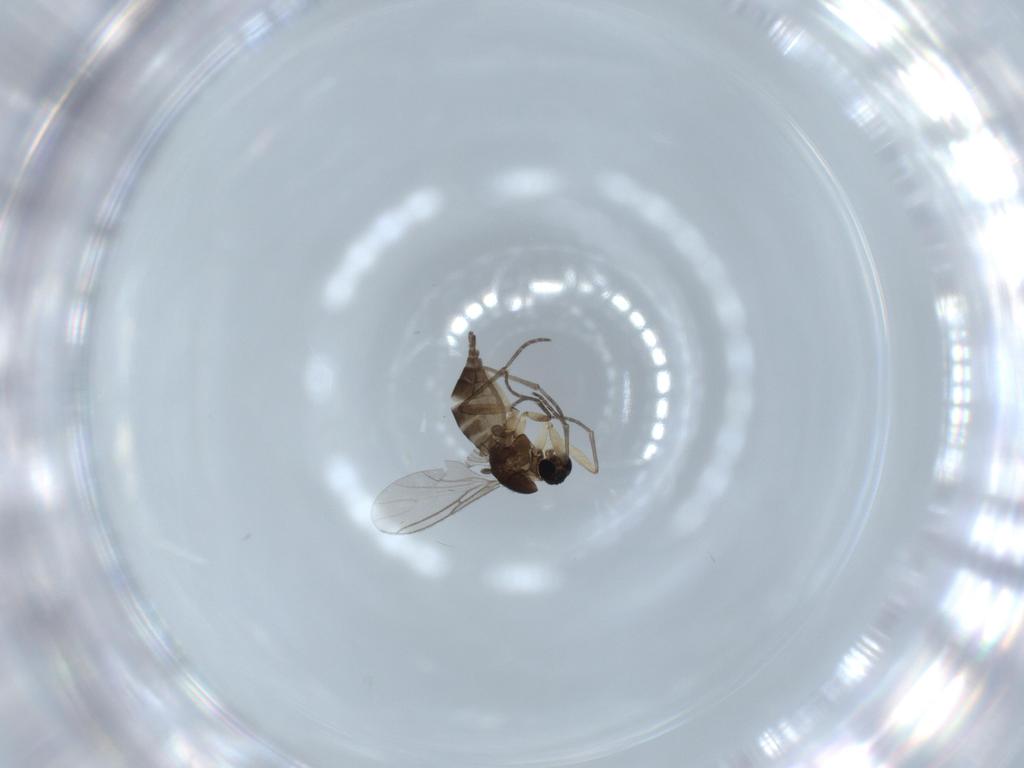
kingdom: Animalia
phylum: Arthropoda
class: Insecta
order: Diptera
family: Sciaridae
